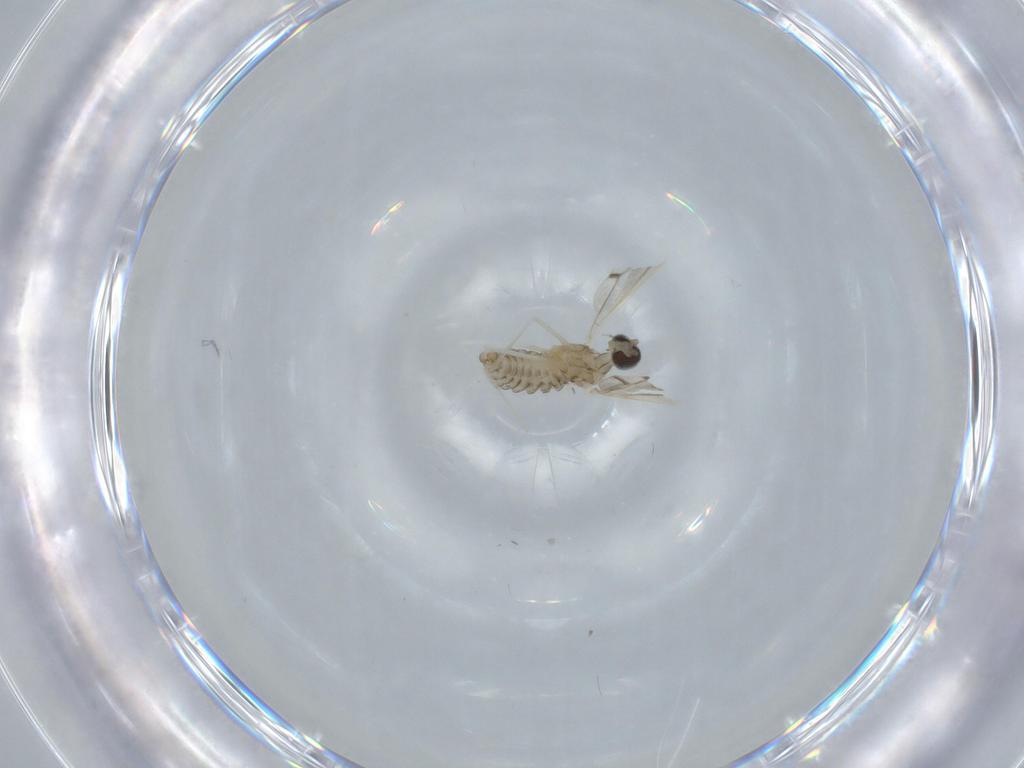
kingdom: Animalia
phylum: Arthropoda
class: Insecta
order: Diptera
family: Cecidomyiidae
